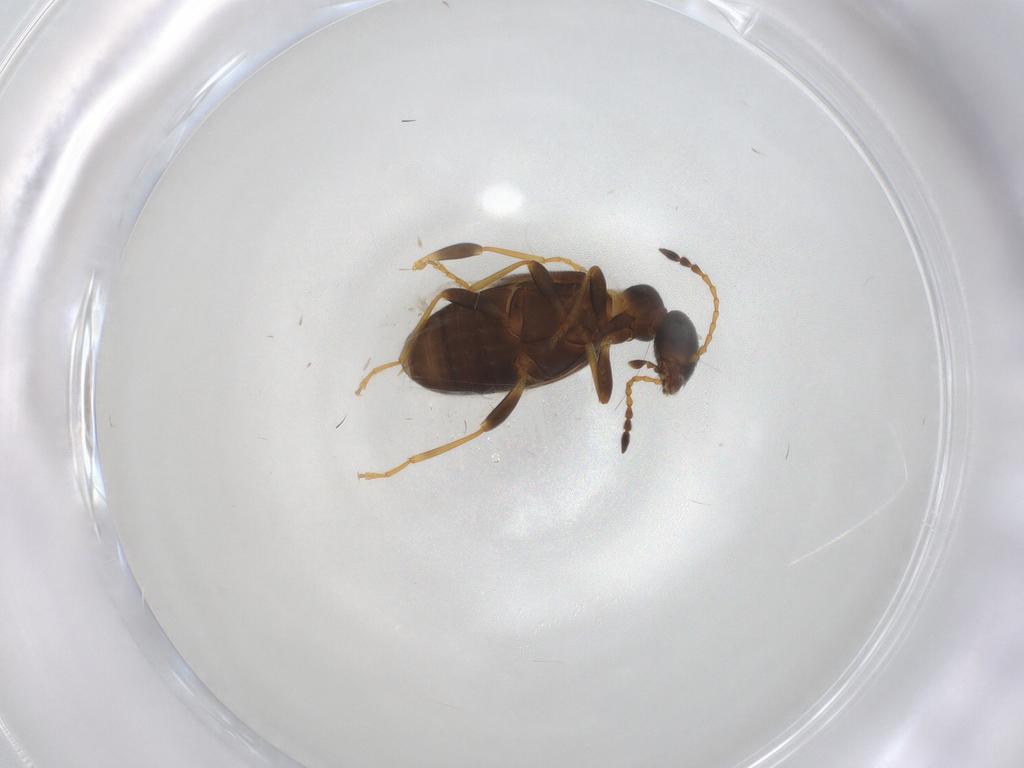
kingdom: Animalia
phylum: Arthropoda
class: Insecta
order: Coleoptera
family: Anthicidae
